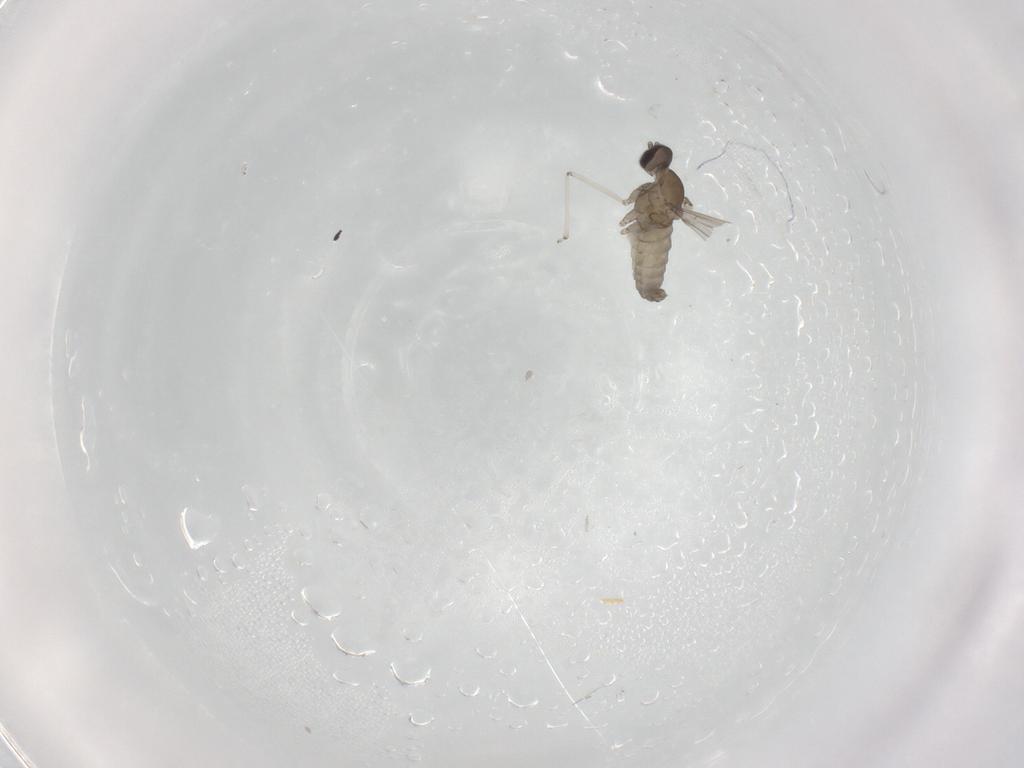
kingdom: Animalia
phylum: Arthropoda
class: Insecta
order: Diptera
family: Cecidomyiidae
